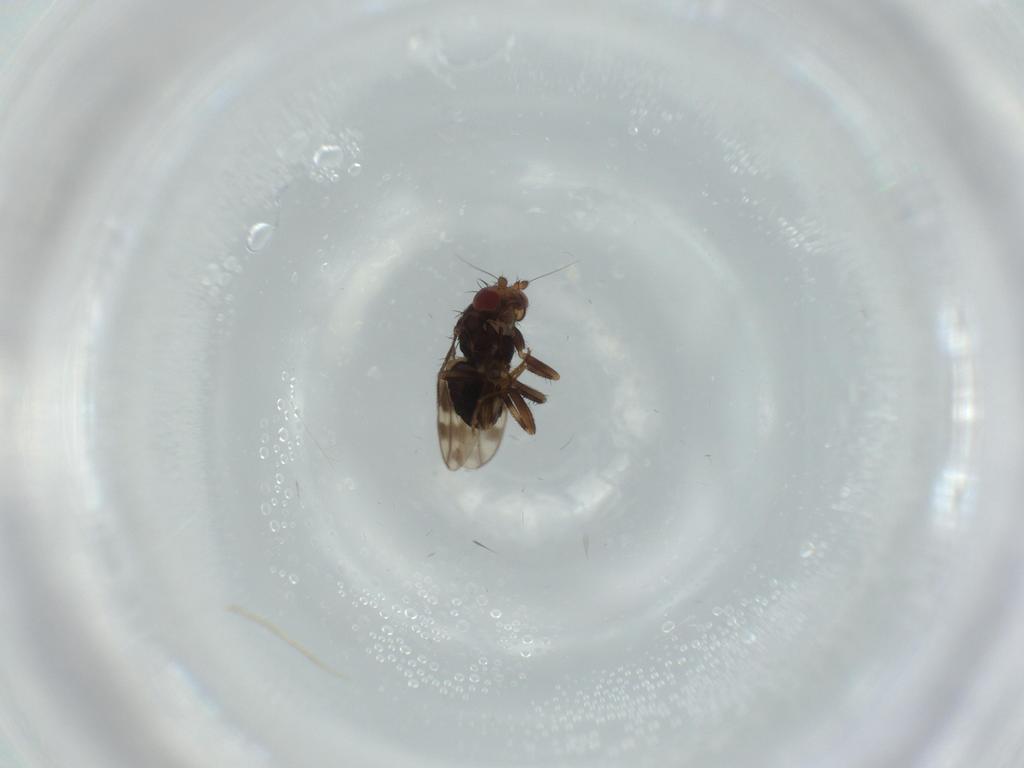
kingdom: Animalia
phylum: Arthropoda
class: Insecta
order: Diptera
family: Sphaeroceridae
